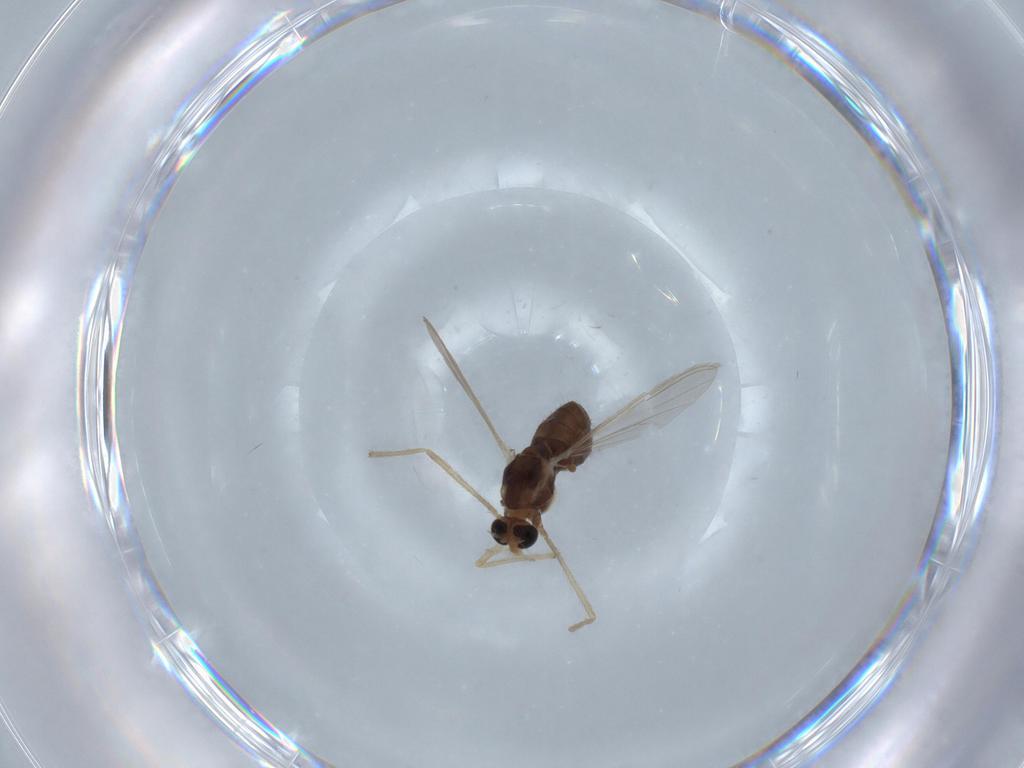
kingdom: Animalia
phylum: Arthropoda
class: Insecta
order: Diptera
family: Chironomidae
